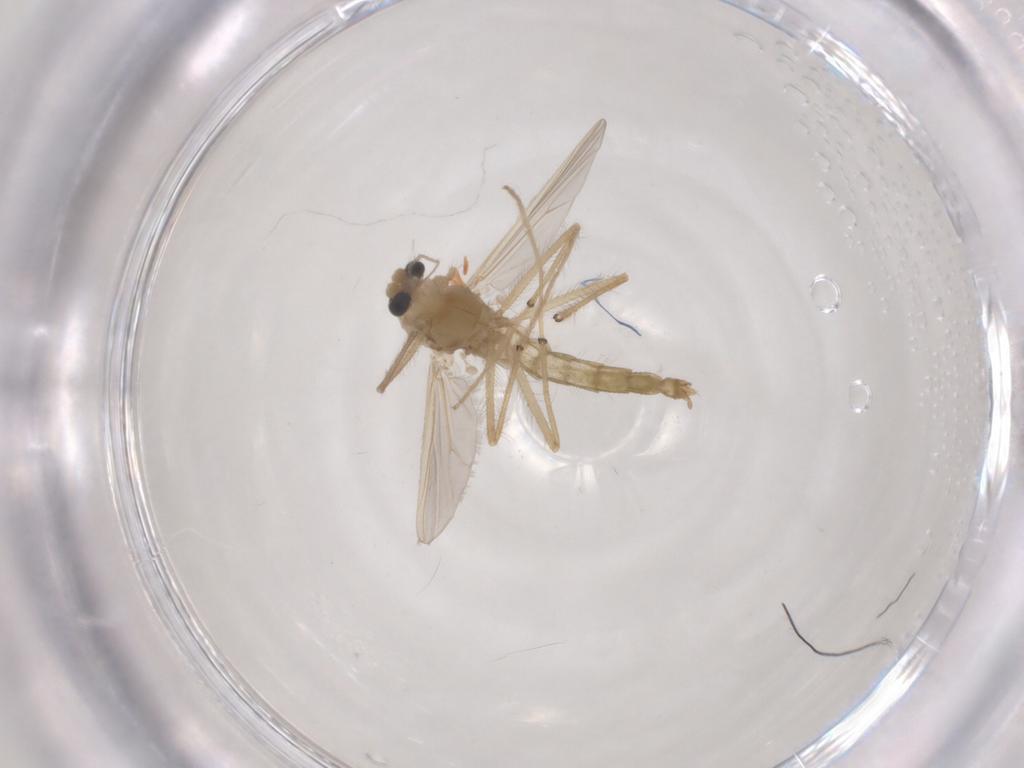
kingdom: Animalia
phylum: Arthropoda
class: Insecta
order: Diptera
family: Chironomidae
